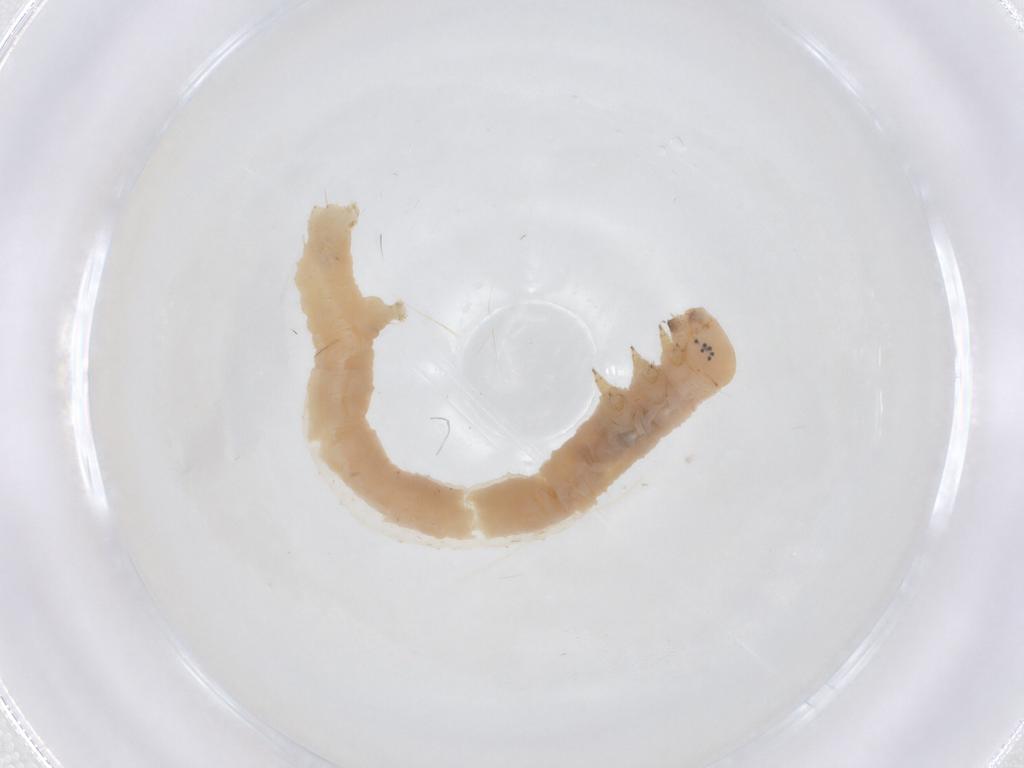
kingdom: Animalia
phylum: Arthropoda
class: Insecta
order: Lepidoptera
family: Geometridae
